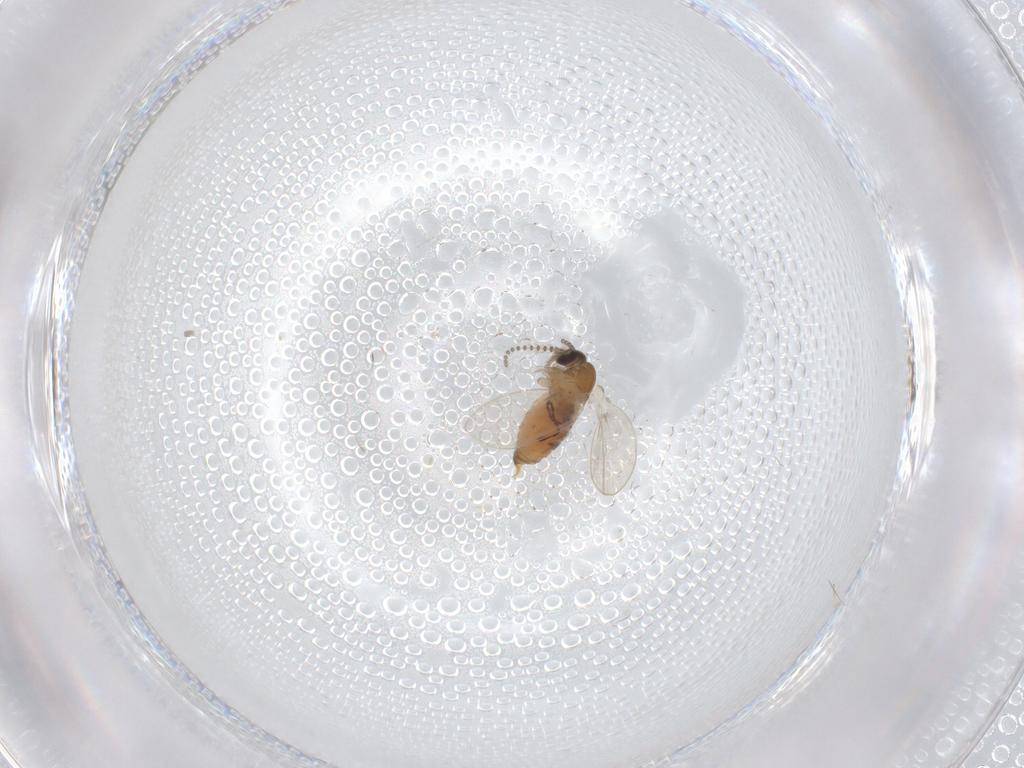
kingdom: Animalia
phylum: Arthropoda
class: Insecta
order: Diptera
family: Psychodidae
